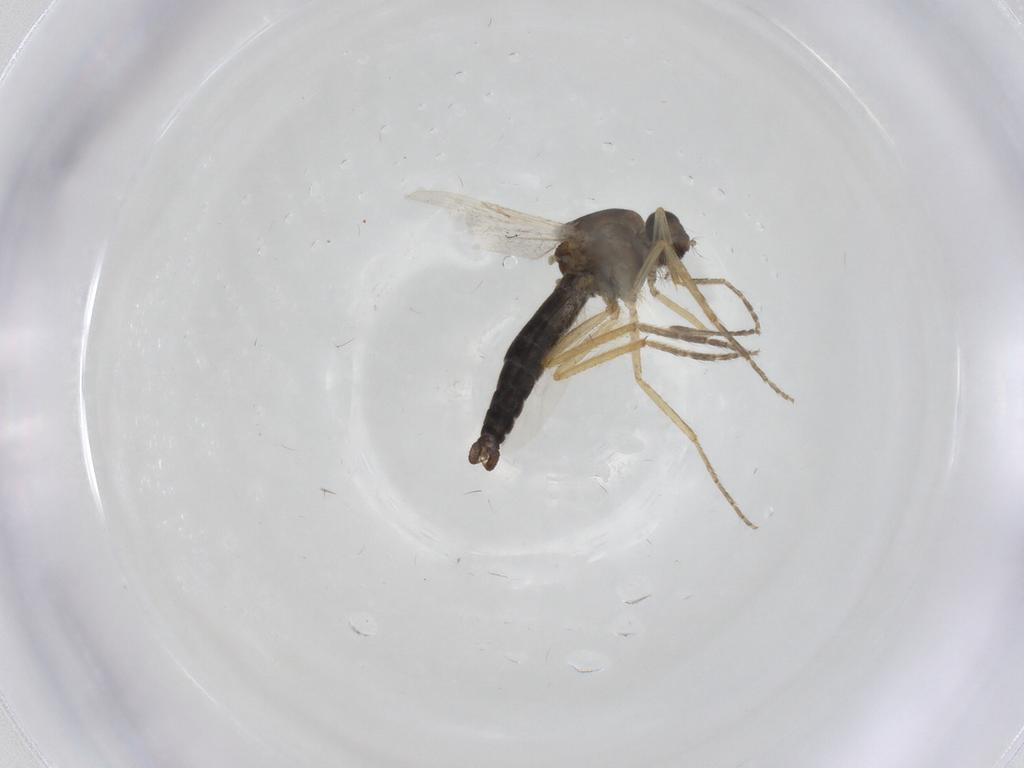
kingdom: Animalia
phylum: Arthropoda
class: Insecta
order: Diptera
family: Ceratopogonidae
